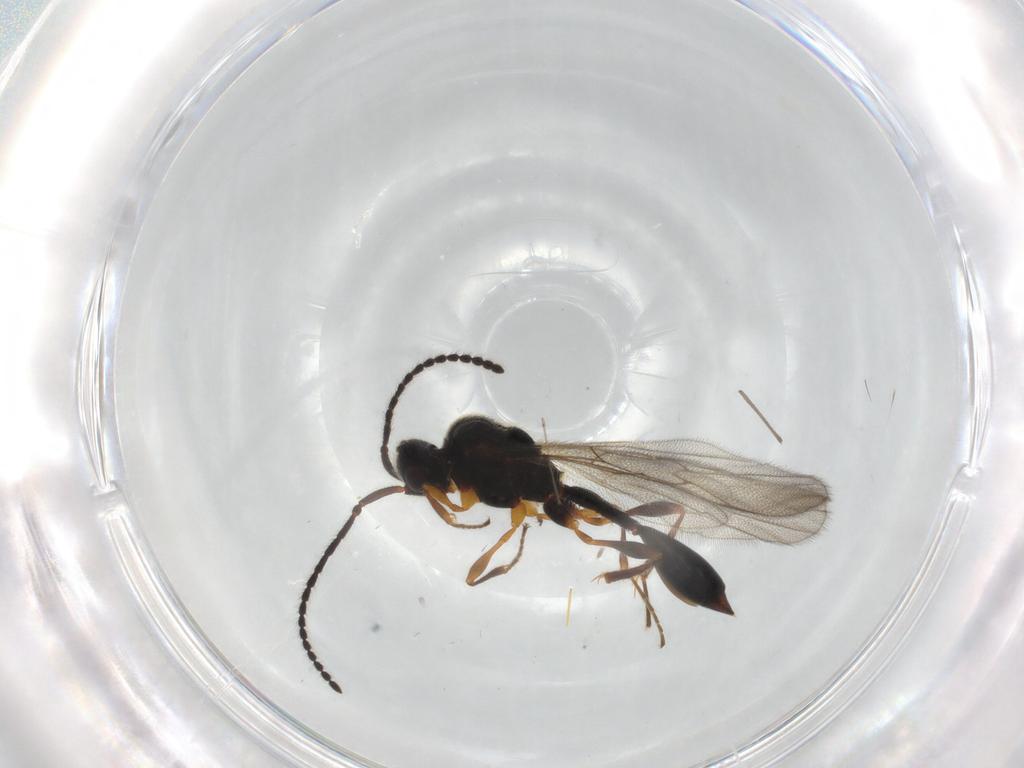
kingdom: Animalia
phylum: Arthropoda
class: Insecta
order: Hymenoptera
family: Diapriidae
